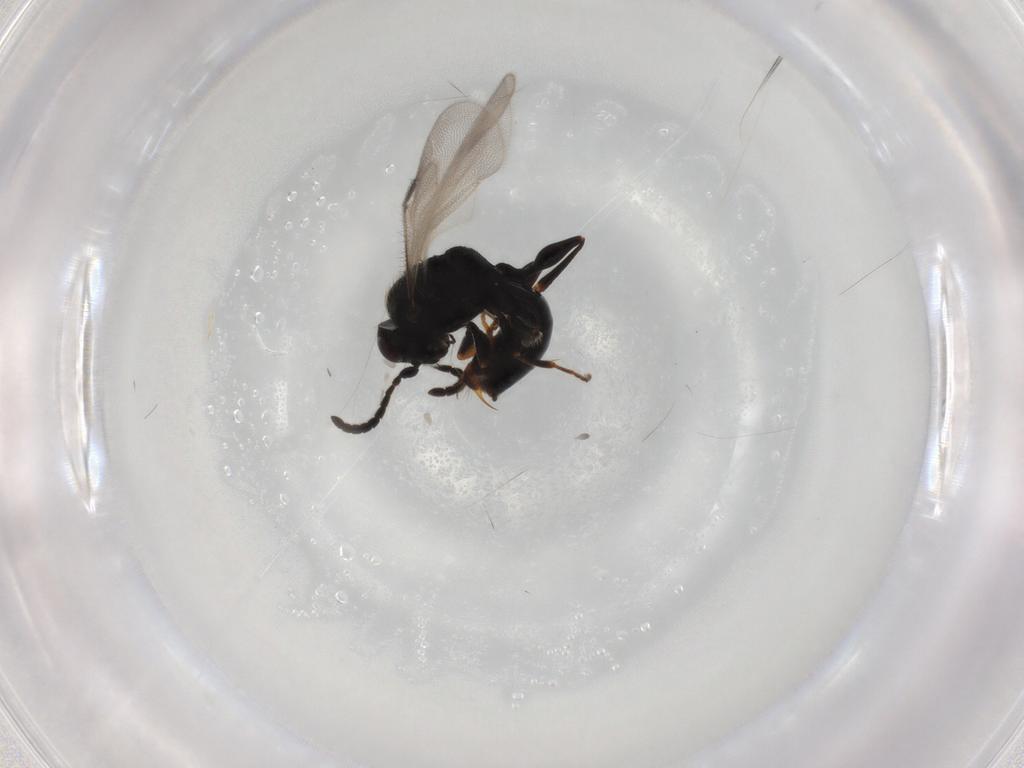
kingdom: Animalia
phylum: Arthropoda
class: Insecta
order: Hymenoptera
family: Dryinidae
